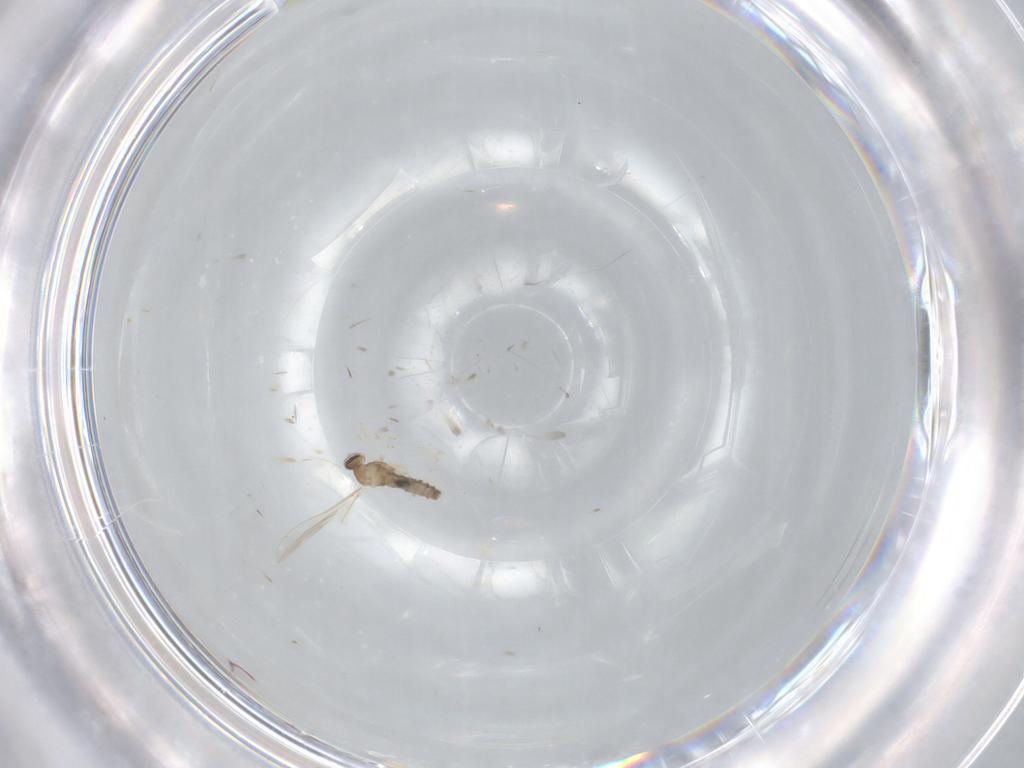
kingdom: Animalia
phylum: Arthropoda
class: Insecta
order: Diptera
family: Cecidomyiidae
